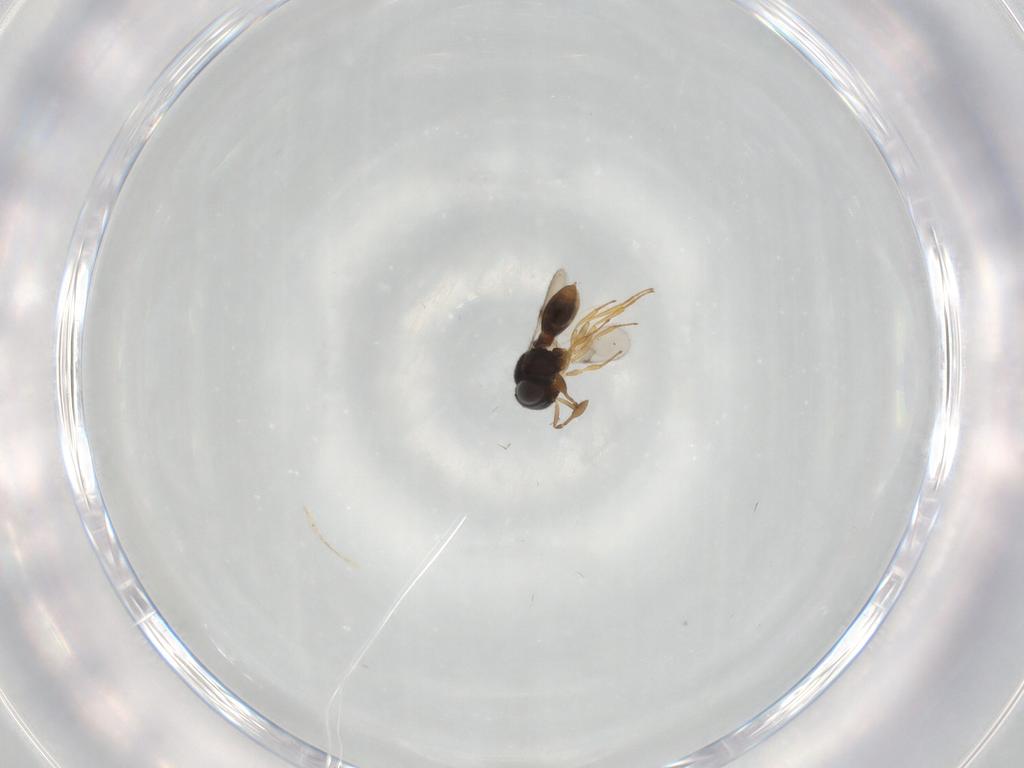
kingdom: Animalia
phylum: Arthropoda
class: Insecta
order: Hymenoptera
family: Scelionidae
